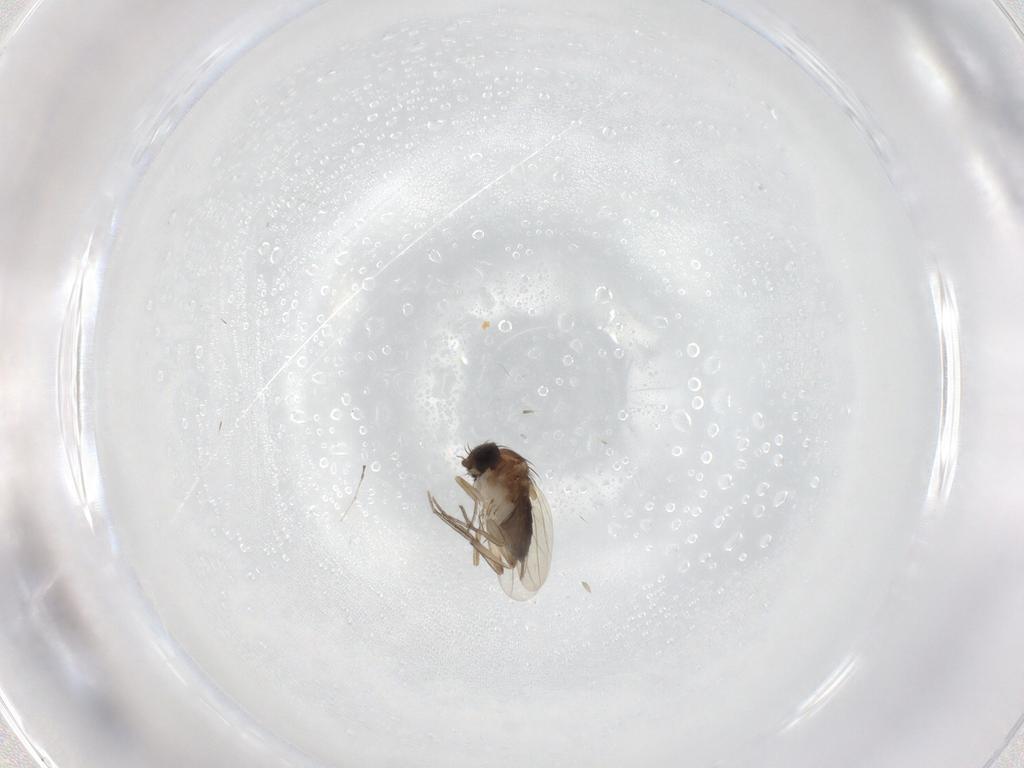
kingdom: Animalia
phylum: Arthropoda
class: Insecta
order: Diptera
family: Phoridae
